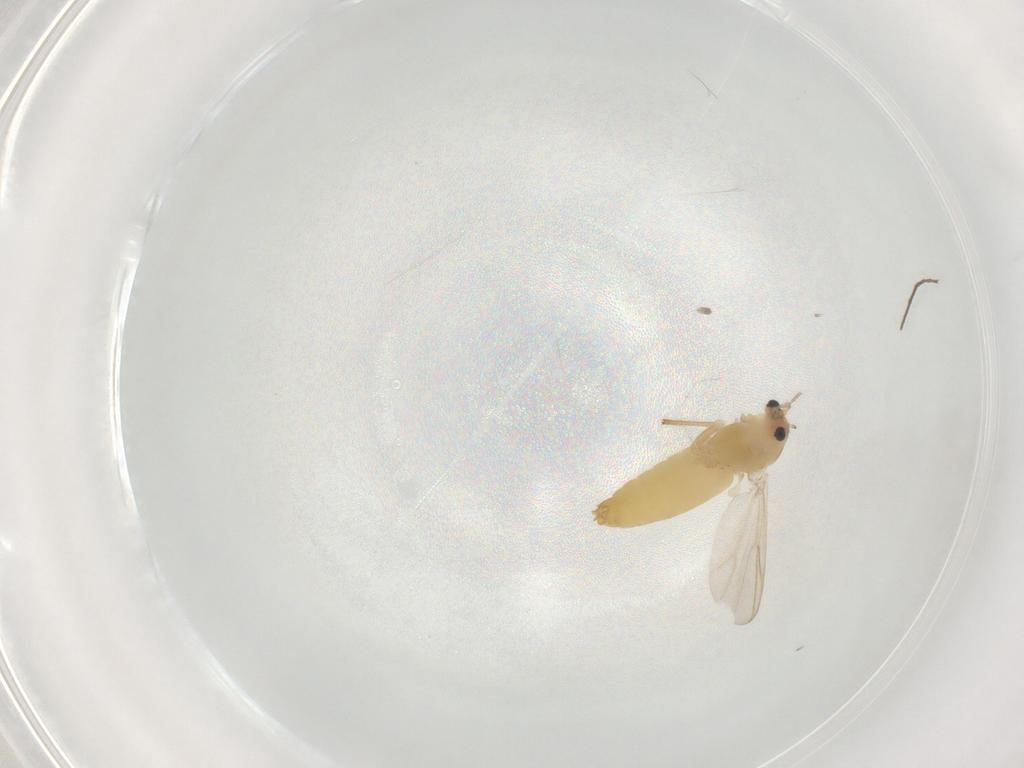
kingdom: Animalia
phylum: Arthropoda
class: Insecta
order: Diptera
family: Chironomidae
